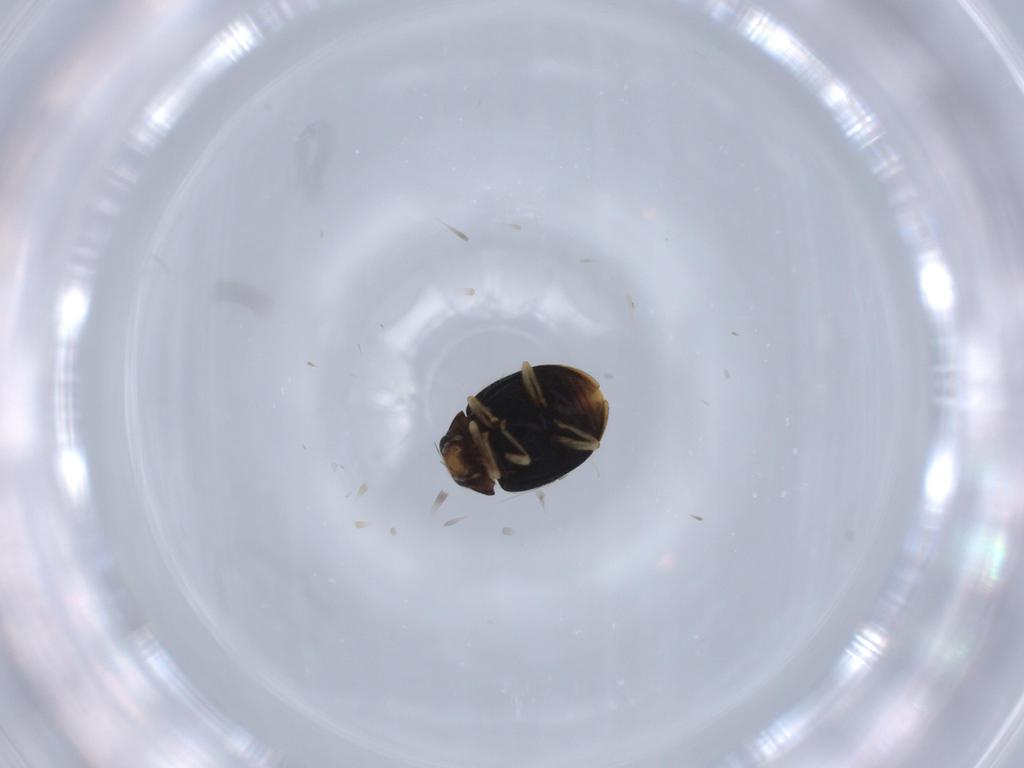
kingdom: Animalia
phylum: Arthropoda
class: Insecta
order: Coleoptera
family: Coccinellidae
